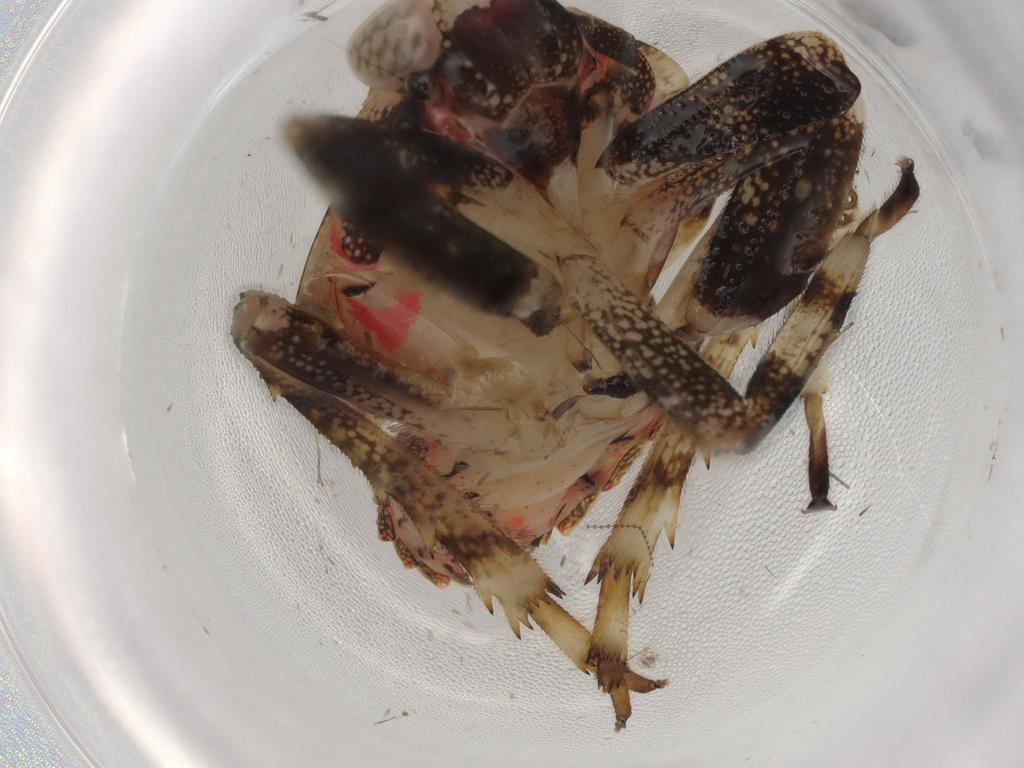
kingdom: Animalia
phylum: Arthropoda
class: Insecta
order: Hemiptera
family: Issidae
